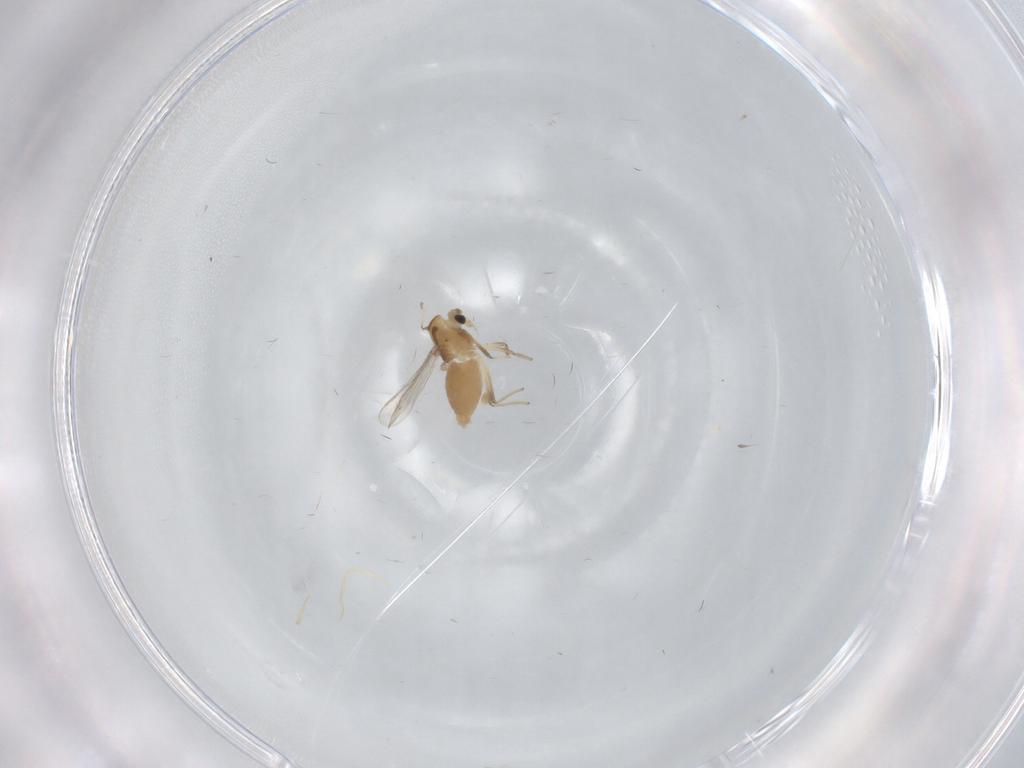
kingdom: Animalia
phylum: Arthropoda
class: Insecta
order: Diptera
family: Chironomidae
